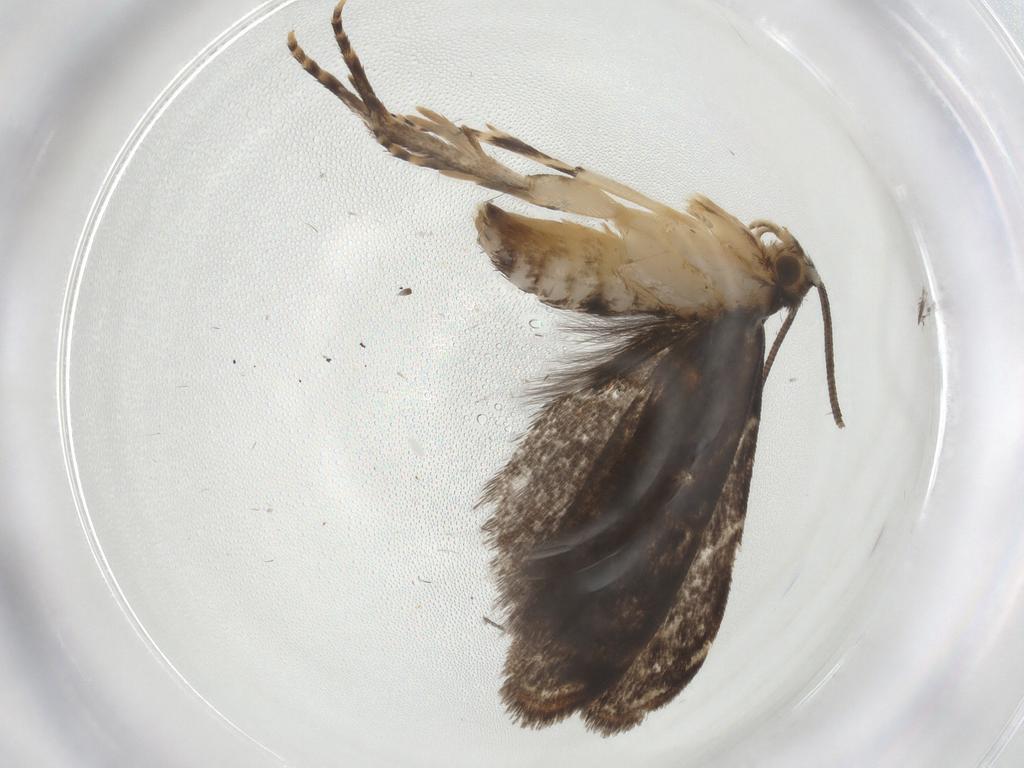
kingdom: Animalia
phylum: Arthropoda
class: Insecta
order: Lepidoptera
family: Dryadaulidae
